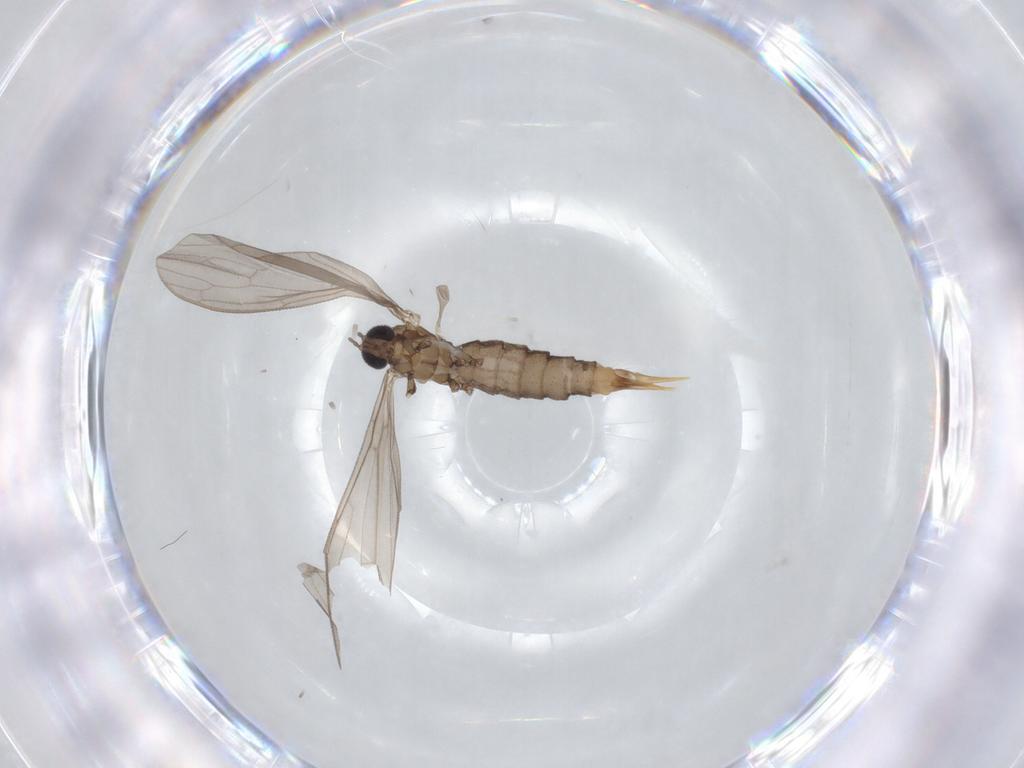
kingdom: Animalia
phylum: Arthropoda
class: Insecta
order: Diptera
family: Limoniidae
